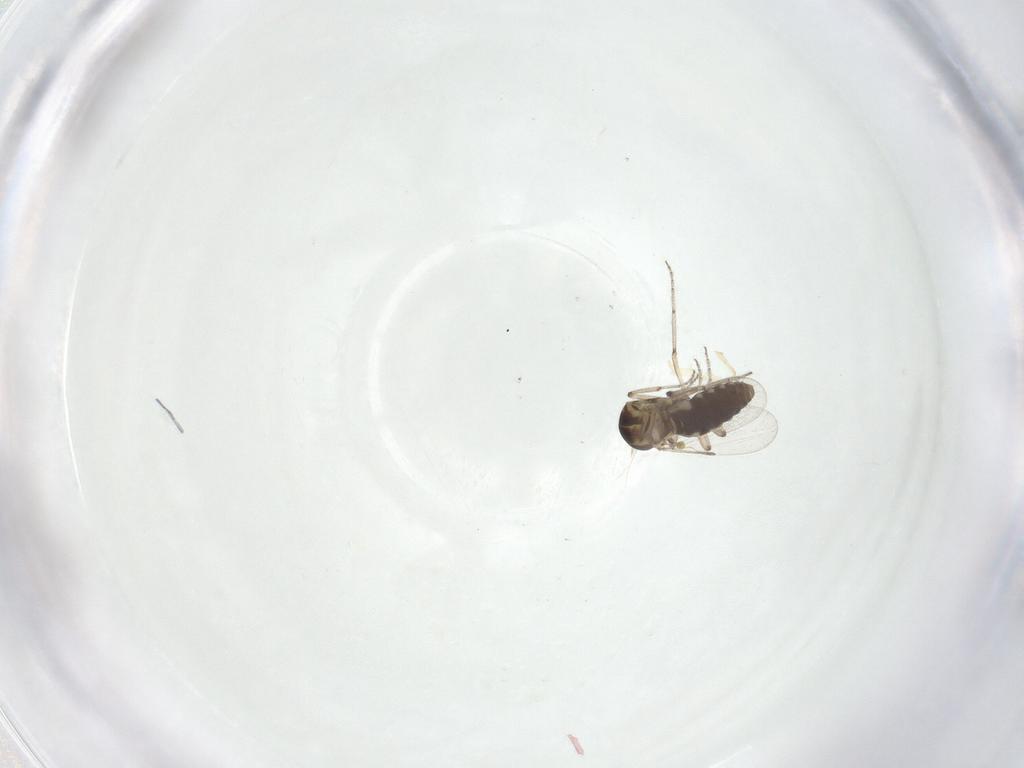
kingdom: Animalia
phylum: Arthropoda
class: Insecta
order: Diptera
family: Ceratopogonidae
